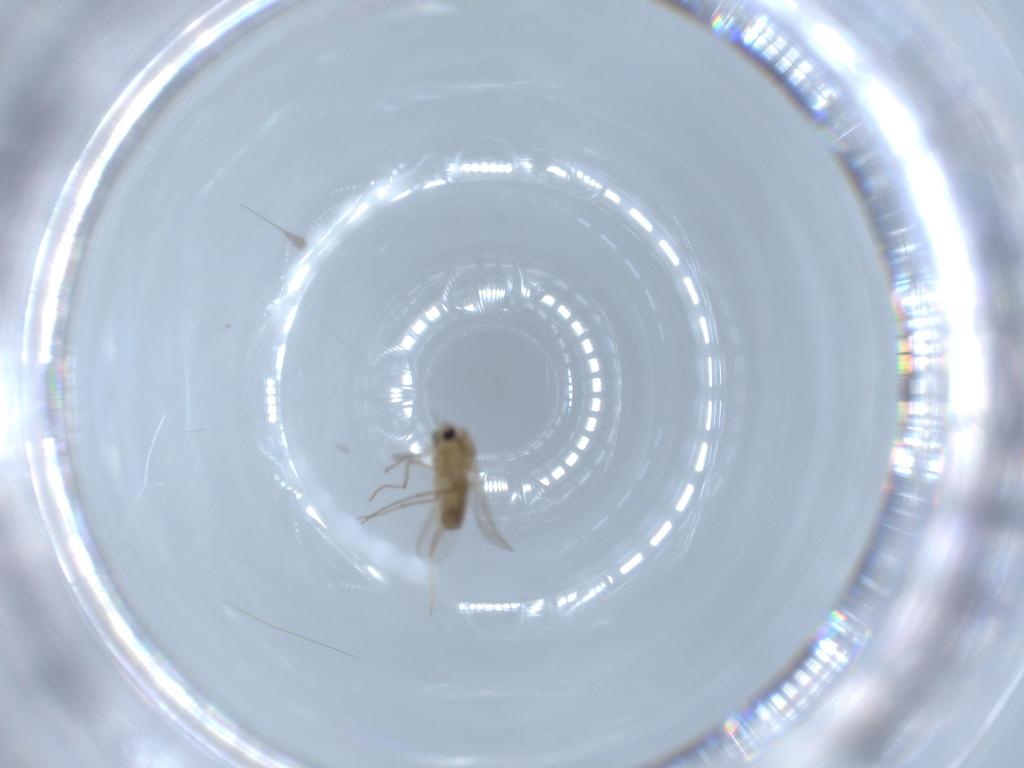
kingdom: Animalia
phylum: Arthropoda
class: Insecta
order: Diptera
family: Chironomidae
